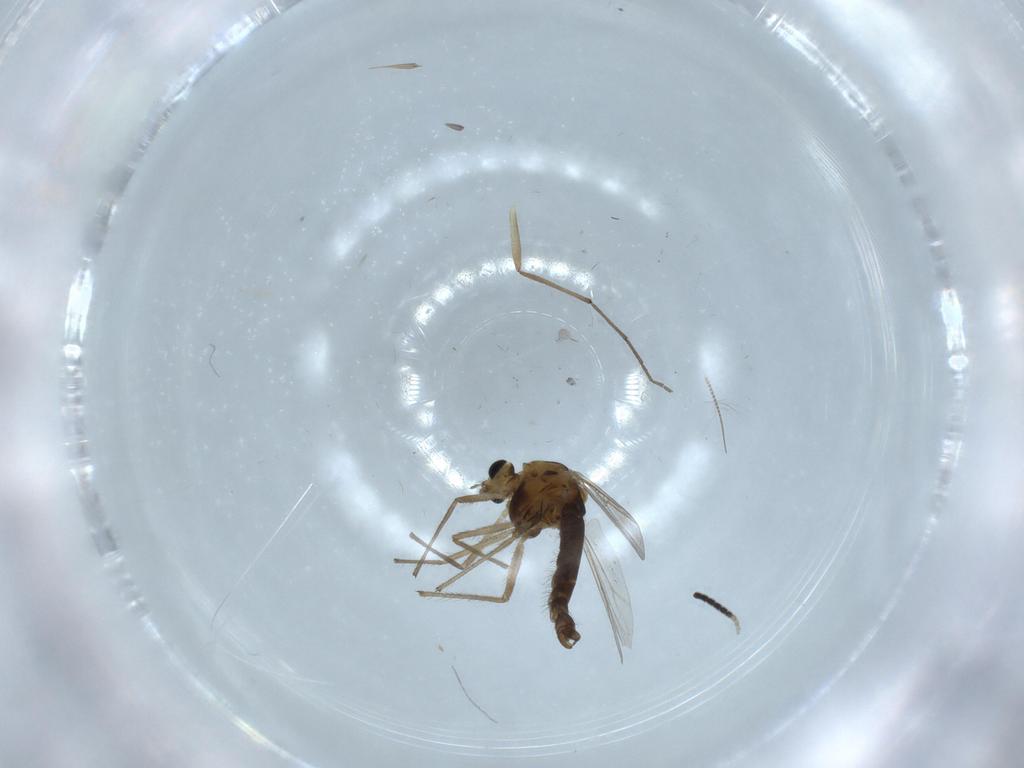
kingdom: Animalia
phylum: Arthropoda
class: Insecta
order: Diptera
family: Chironomidae
